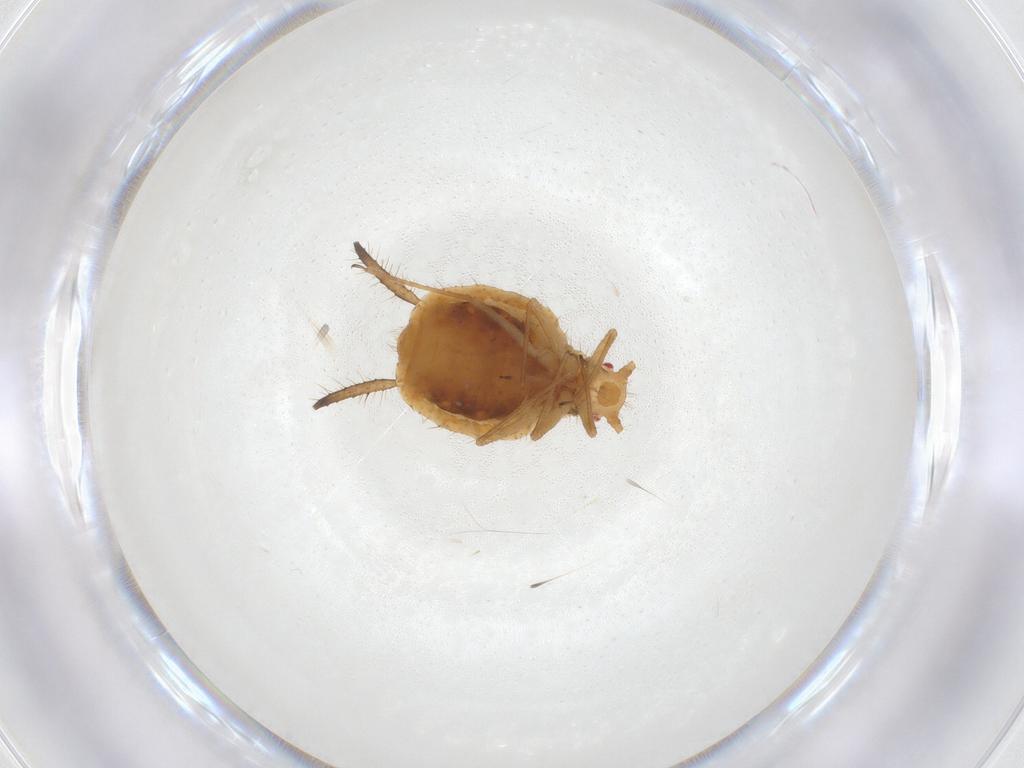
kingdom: Animalia
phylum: Arthropoda
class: Insecta
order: Hemiptera
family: Aphididae
